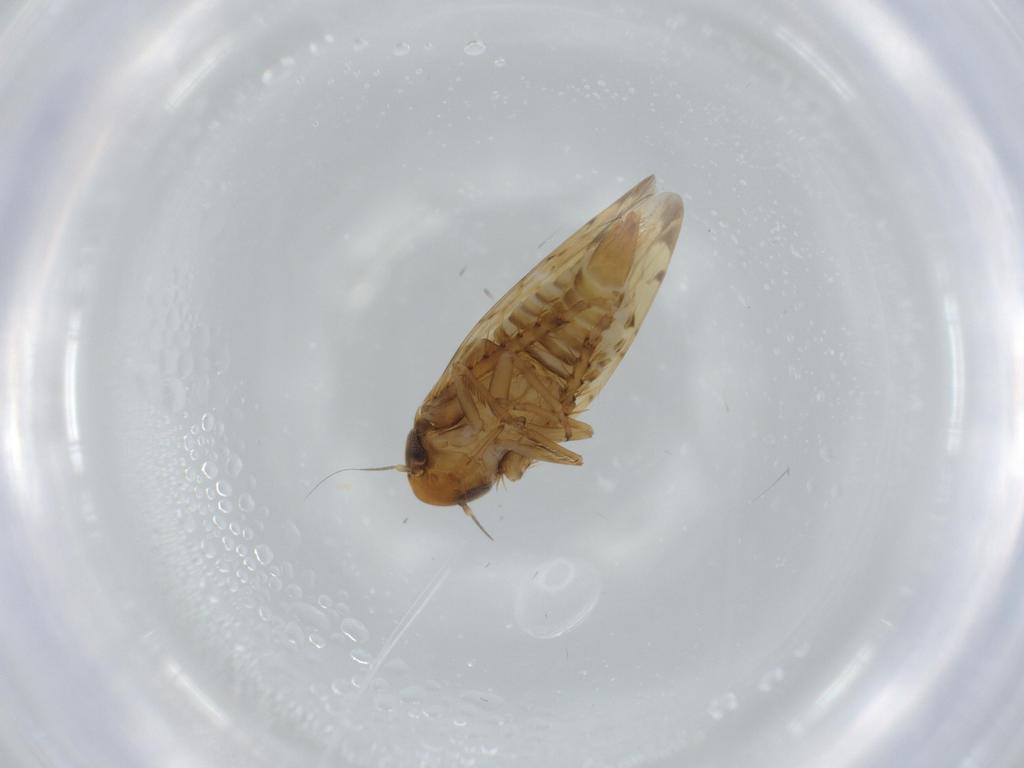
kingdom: Animalia
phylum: Arthropoda
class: Insecta
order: Hemiptera
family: Cicadellidae
